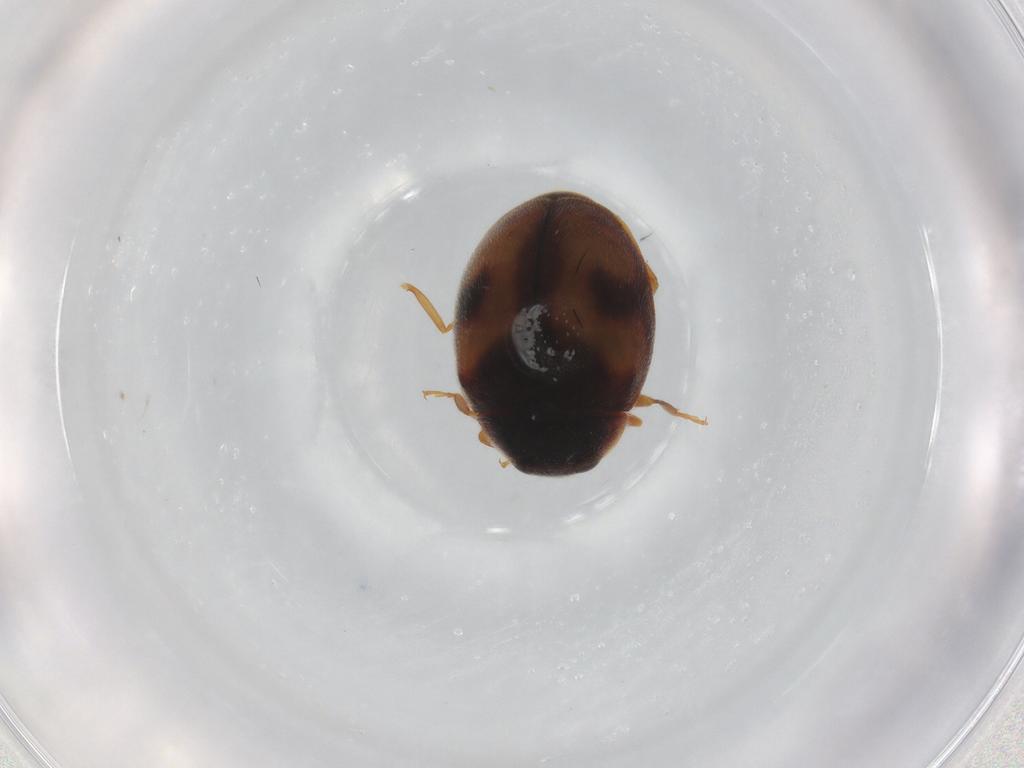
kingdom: Animalia
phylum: Arthropoda
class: Insecta
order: Coleoptera
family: Coccinellidae
